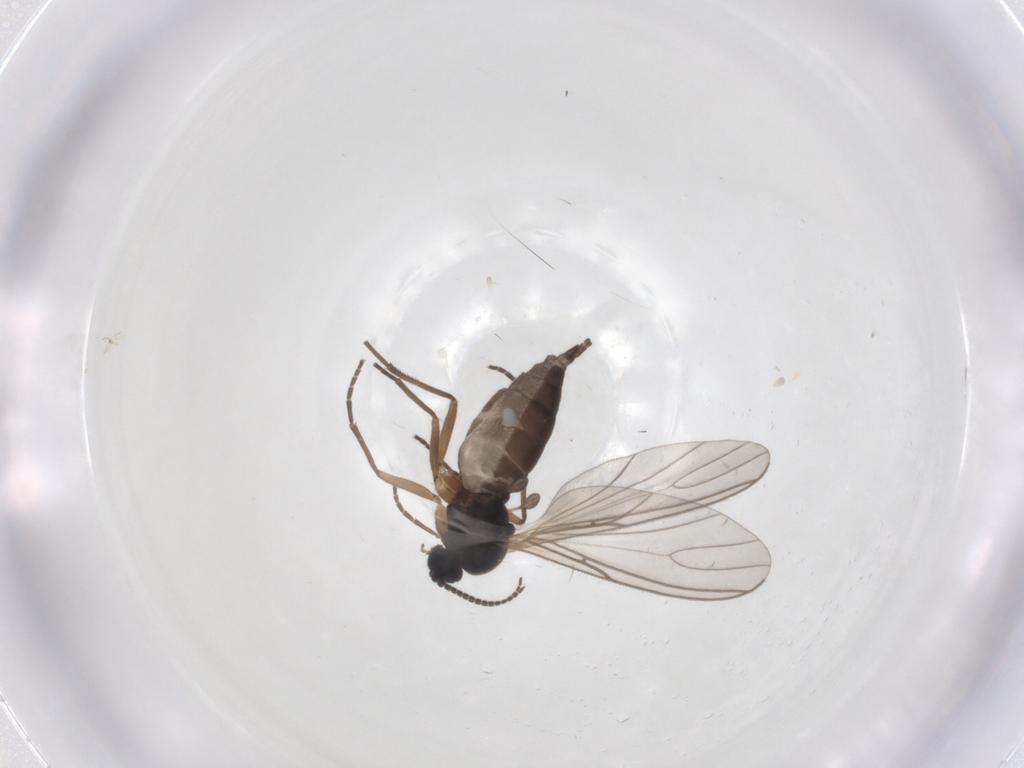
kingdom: Animalia
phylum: Arthropoda
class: Insecta
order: Diptera
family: Sciaridae
